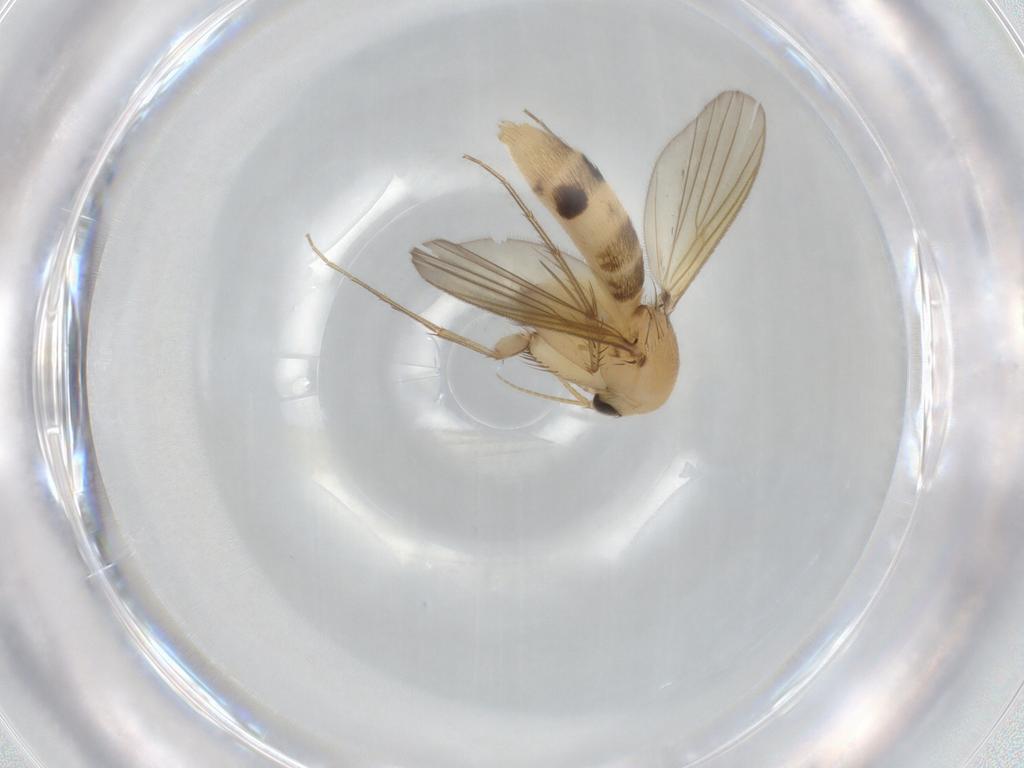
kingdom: Animalia
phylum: Arthropoda
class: Insecta
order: Diptera
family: Mycetophilidae
